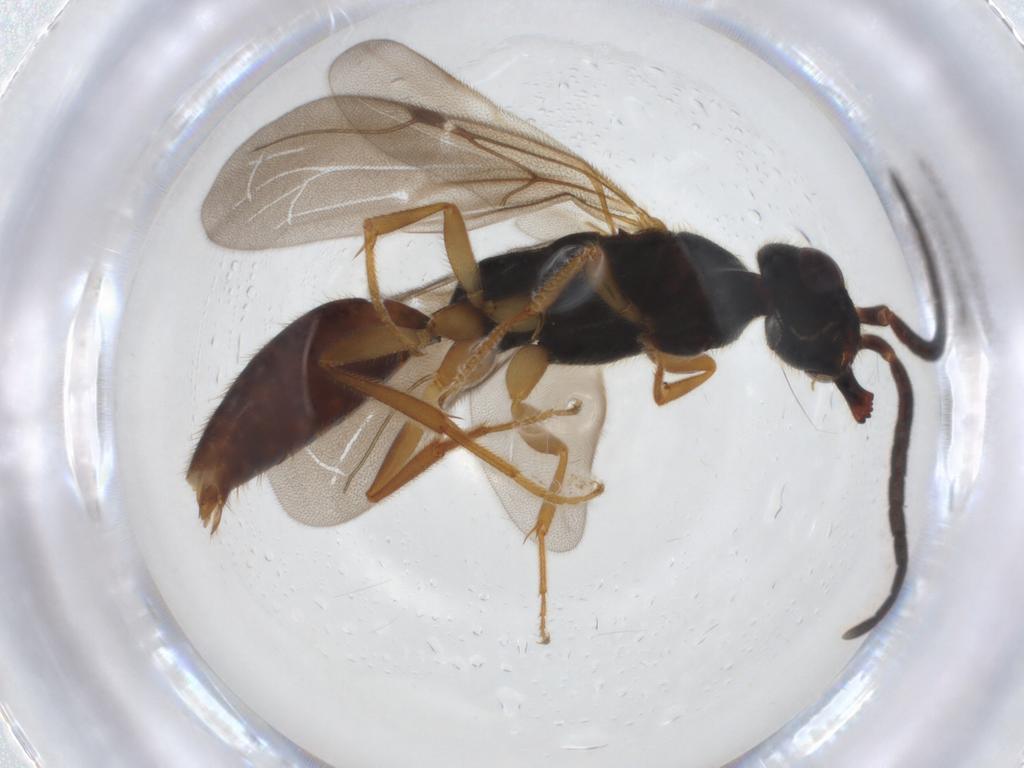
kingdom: Animalia
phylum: Arthropoda
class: Insecta
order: Hymenoptera
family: Bethylidae
